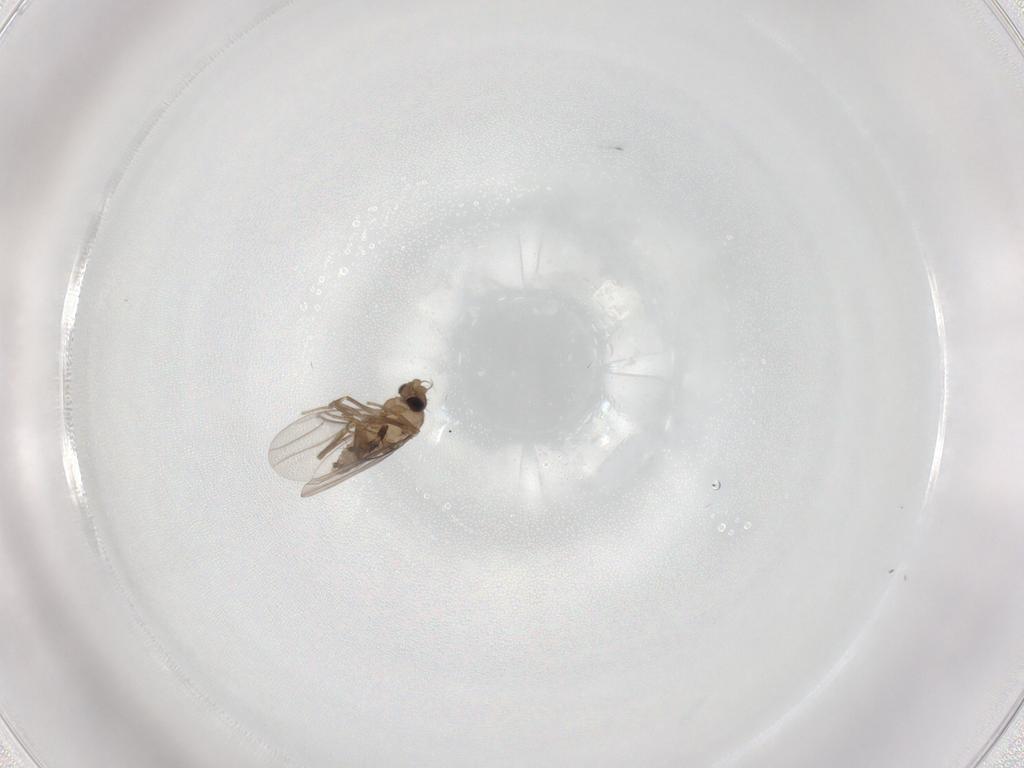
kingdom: Animalia
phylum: Arthropoda
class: Insecta
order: Diptera
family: Limoniidae
